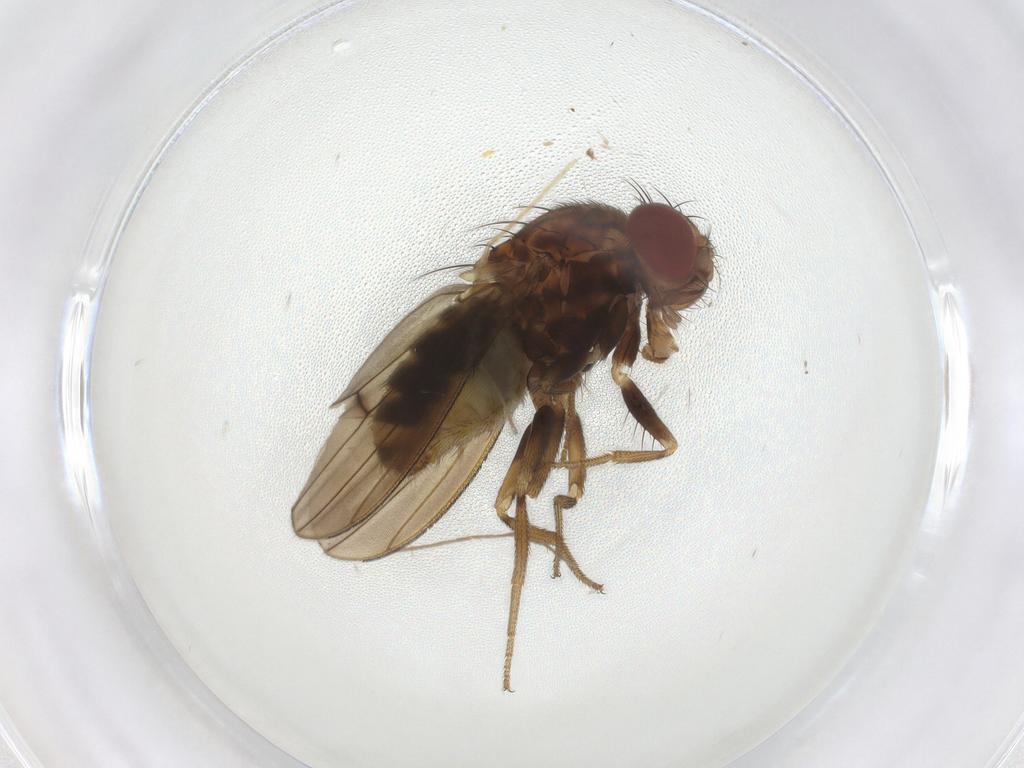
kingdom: Animalia
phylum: Arthropoda
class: Insecta
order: Diptera
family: Drosophilidae
